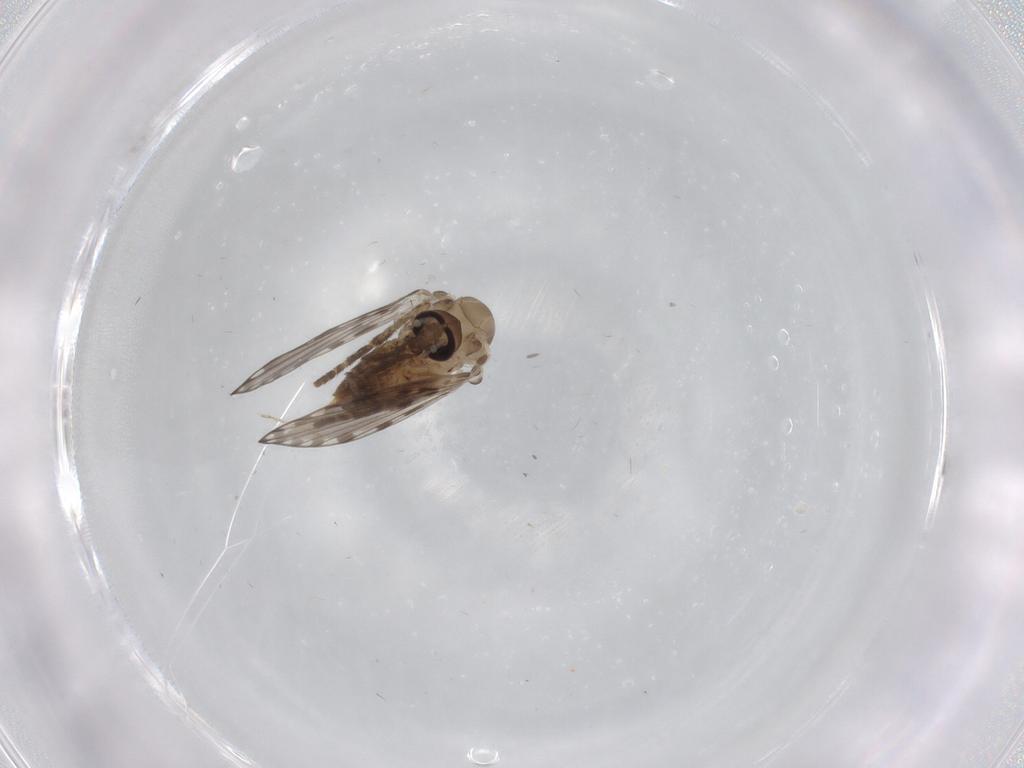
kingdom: Animalia
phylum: Arthropoda
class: Insecta
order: Diptera
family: Psychodidae
